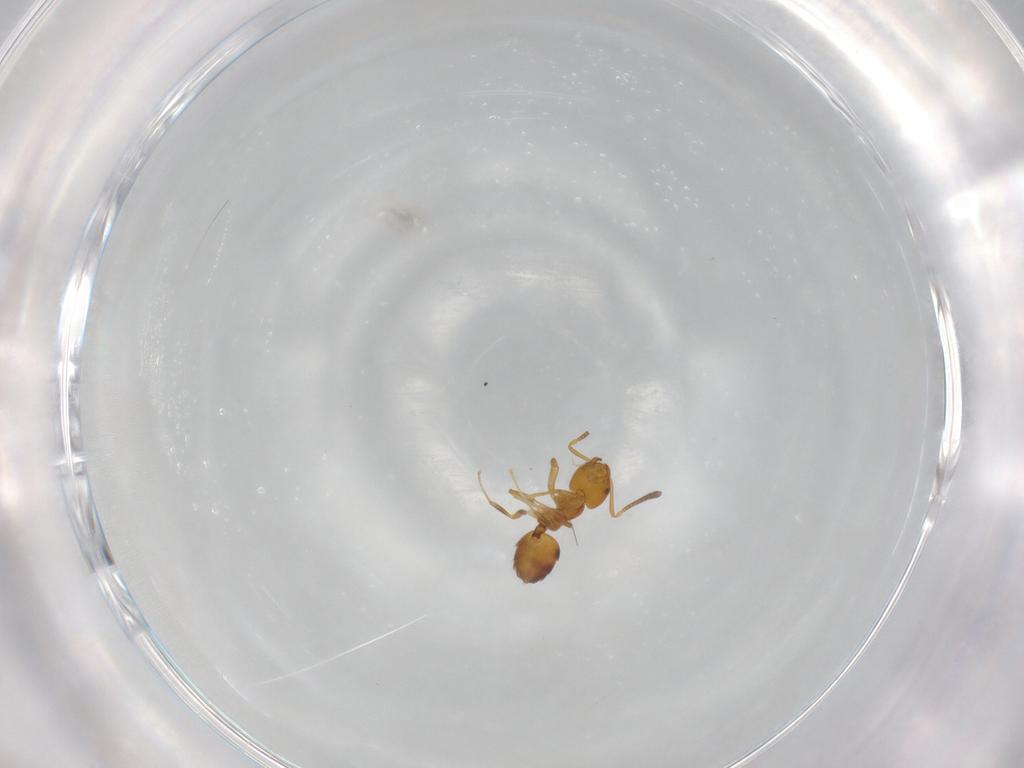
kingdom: Animalia
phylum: Arthropoda
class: Insecta
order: Hymenoptera
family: Formicidae
